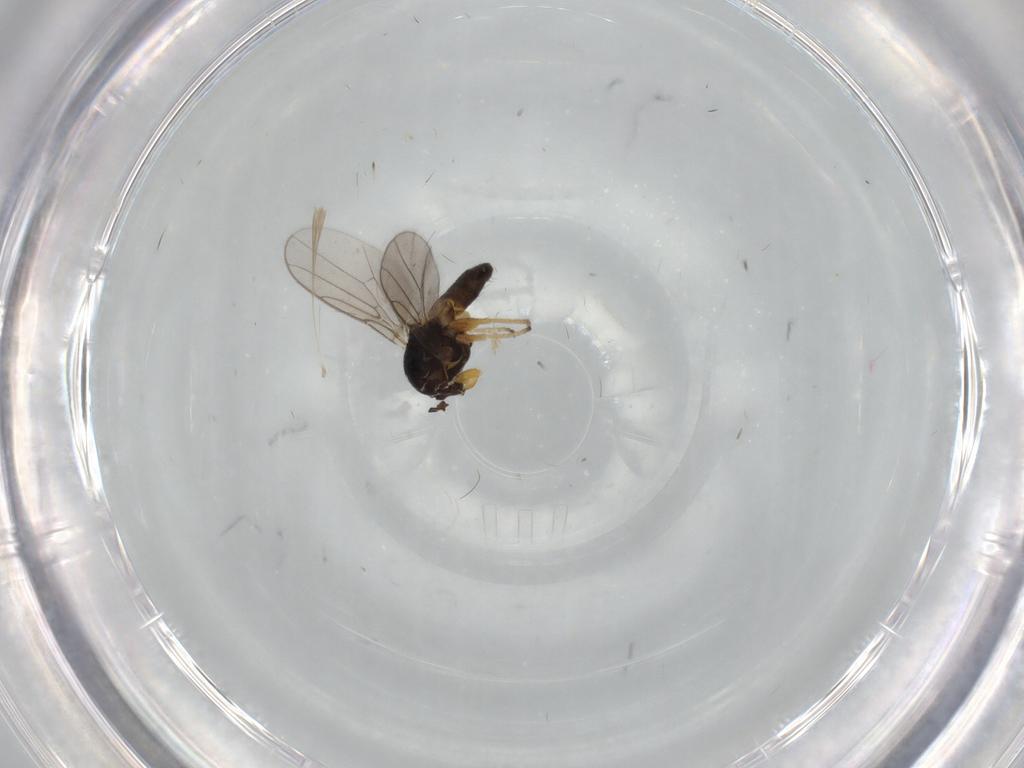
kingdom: Animalia
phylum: Arthropoda
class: Insecta
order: Diptera
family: Chloropidae
